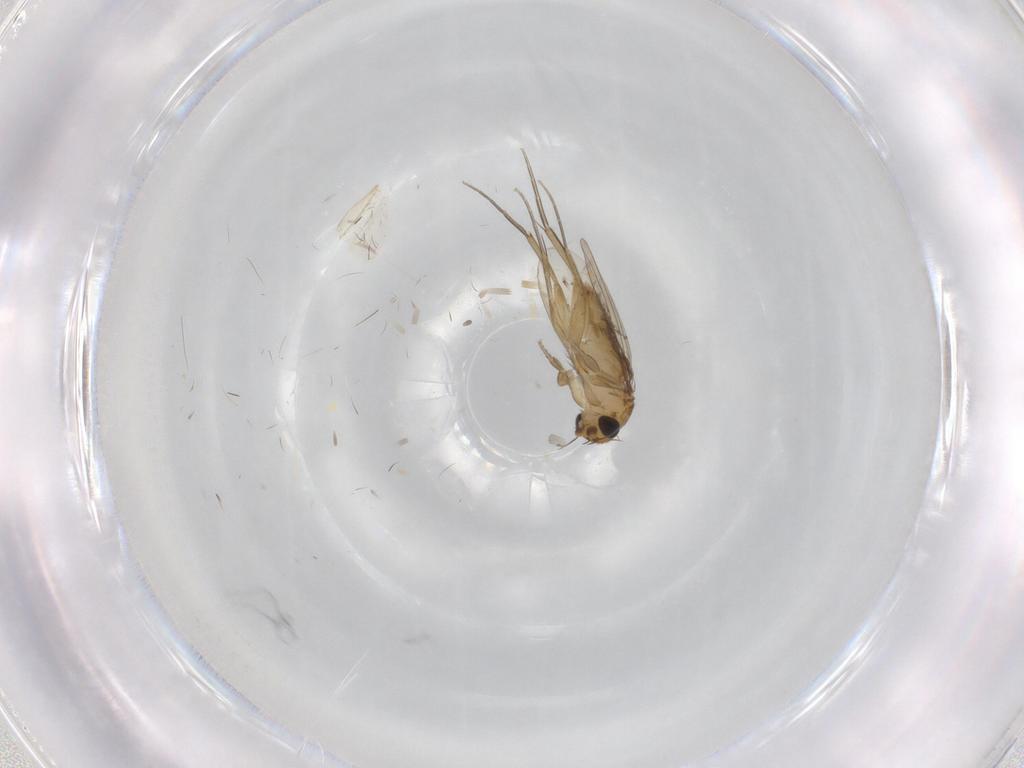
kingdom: Animalia
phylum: Arthropoda
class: Insecta
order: Diptera
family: Phoridae
